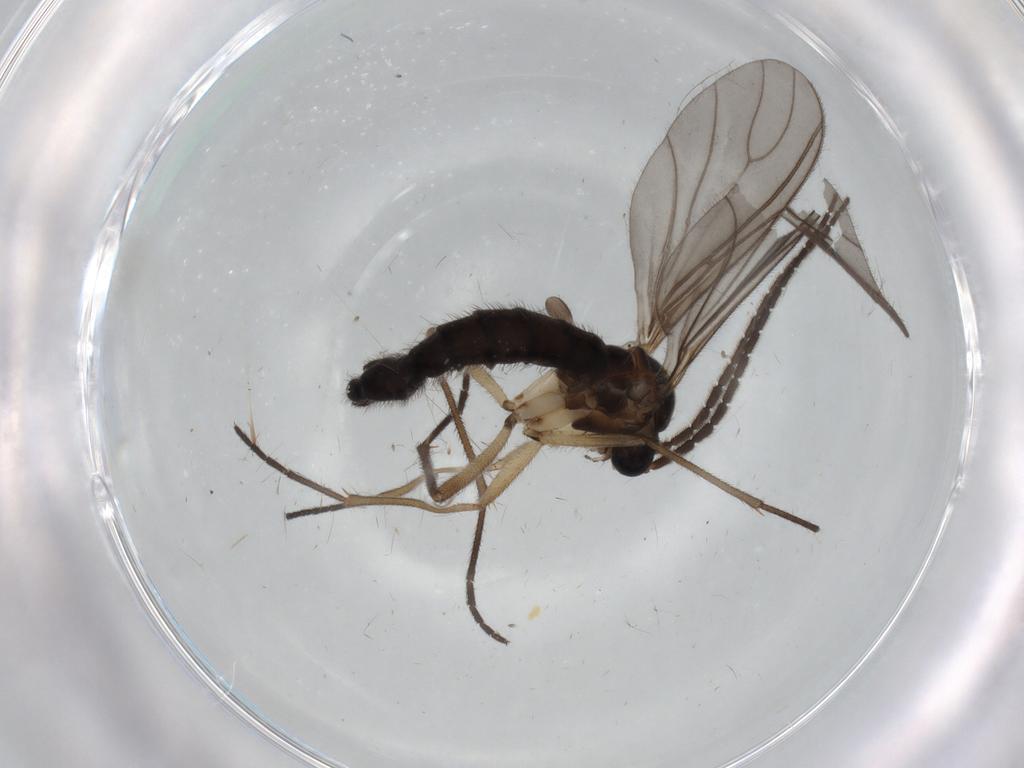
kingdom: Animalia
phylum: Arthropoda
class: Insecta
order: Diptera
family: Sciaridae
